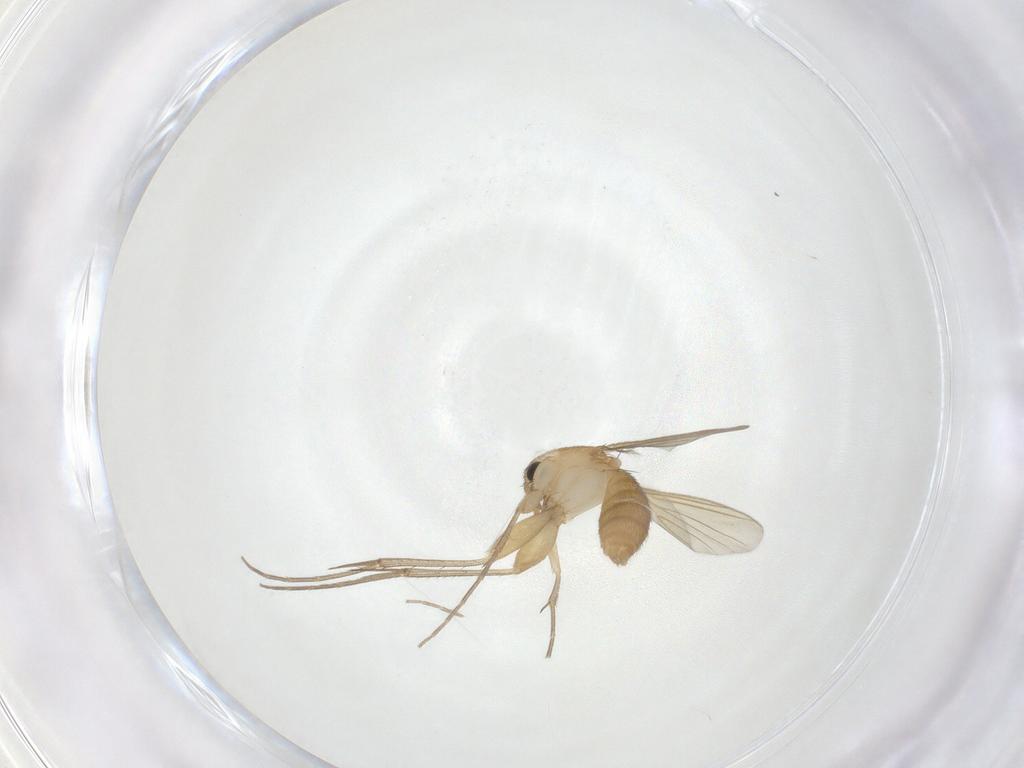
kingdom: Animalia
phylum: Arthropoda
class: Insecta
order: Diptera
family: Mycetophilidae
